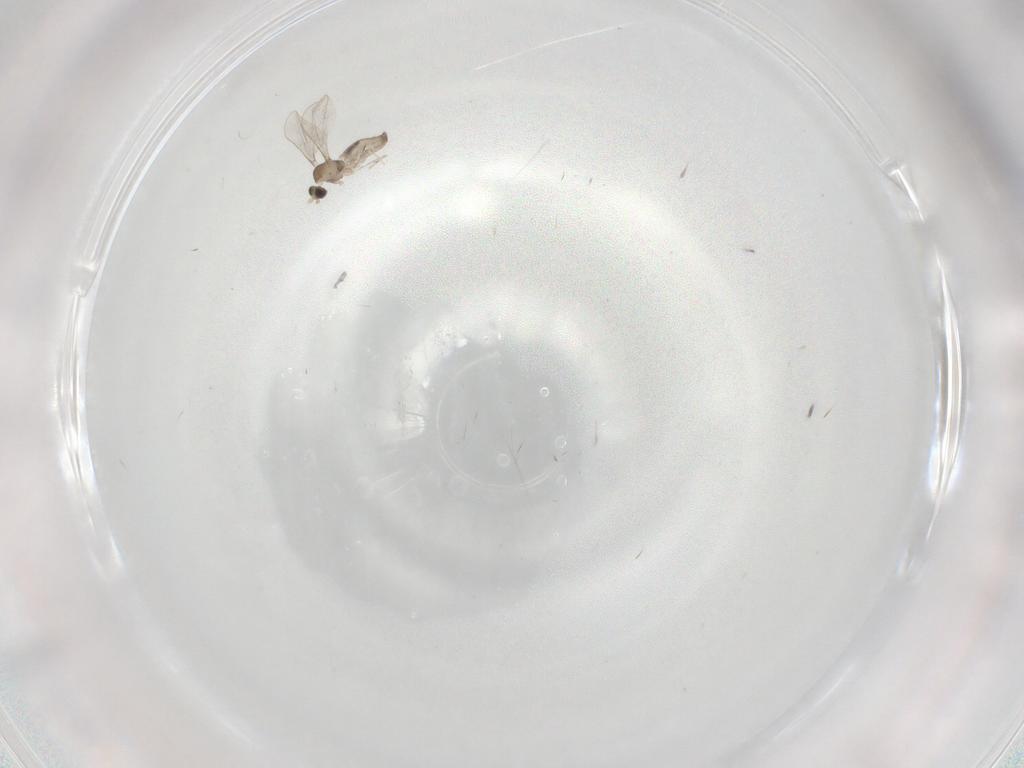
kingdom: Animalia
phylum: Arthropoda
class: Insecta
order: Diptera
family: Cecidomyiidae
